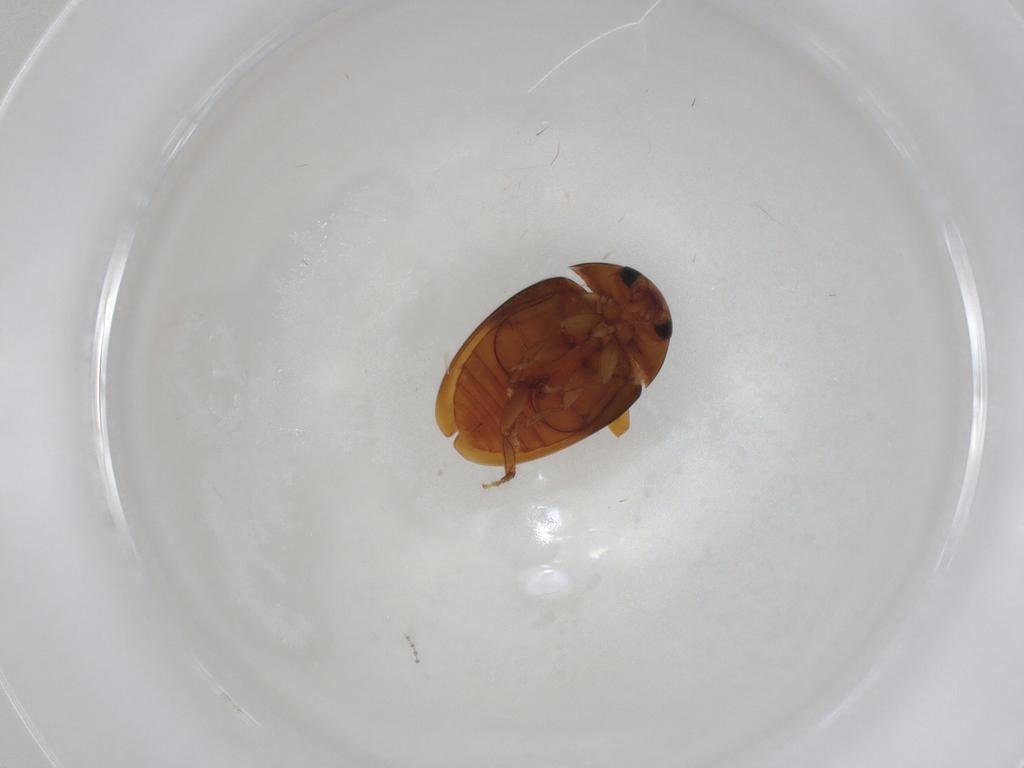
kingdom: Animalia
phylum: Arthropoda
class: Insecta
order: Coleoptera
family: Phalacridae
